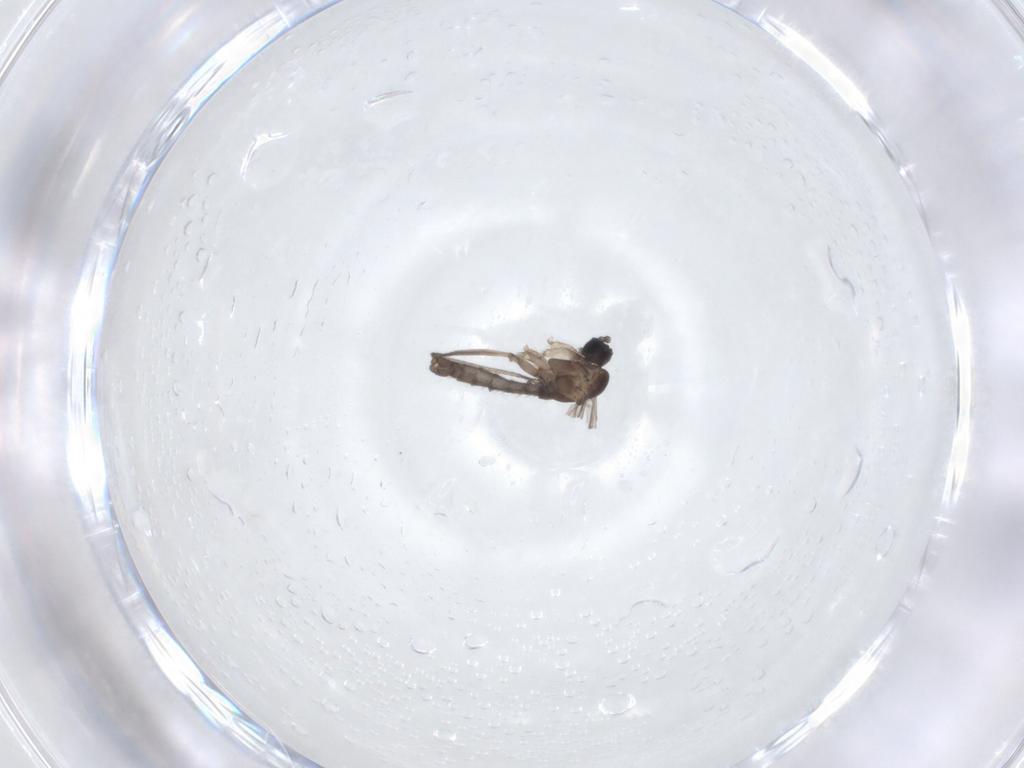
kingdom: Animalia
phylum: Arthropoda
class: Insecta
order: Diptera
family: Sciaridae
